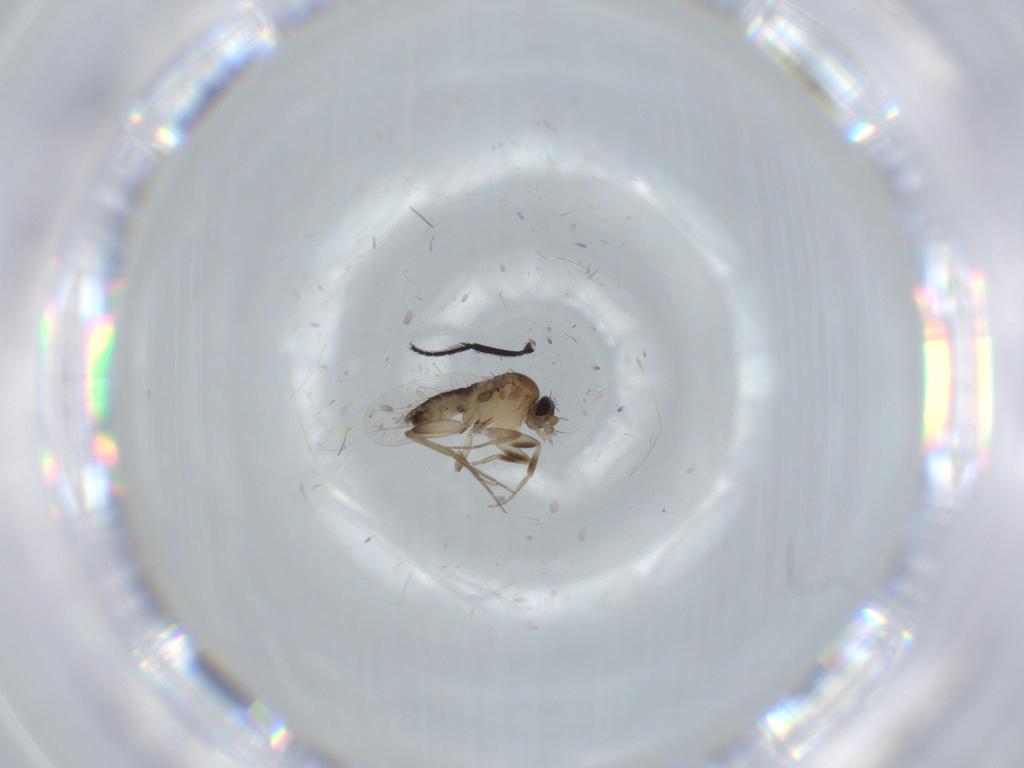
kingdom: Animalia
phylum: Arthropoda
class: Insecta
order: Diptera
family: Phoridae
